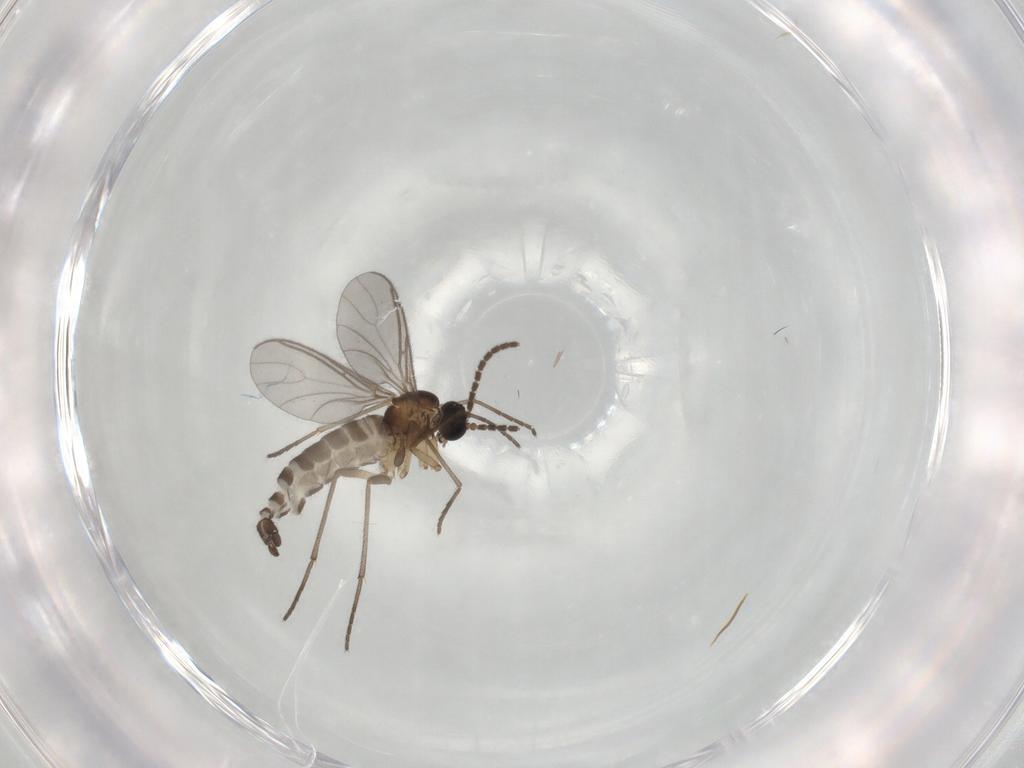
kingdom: Animalia
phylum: Arthropoda
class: Insecta
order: Diptera
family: Sciaridae
